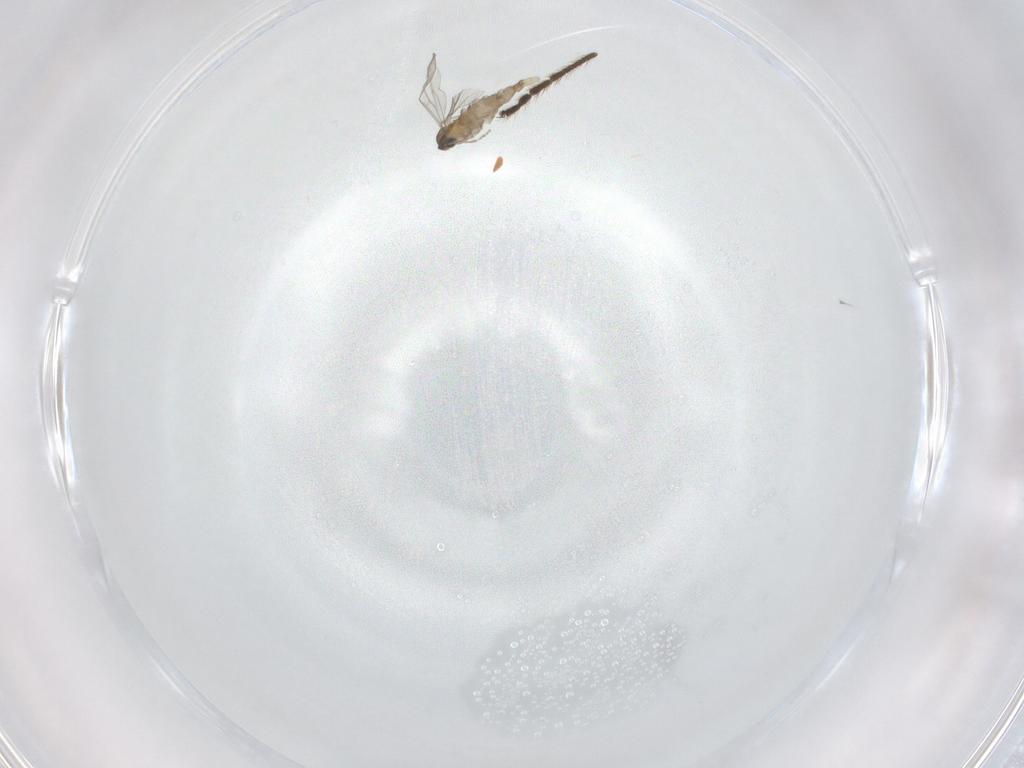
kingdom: Animalia
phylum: Arthropoda
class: Insecta
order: Diptera
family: Cecidomyiidae
